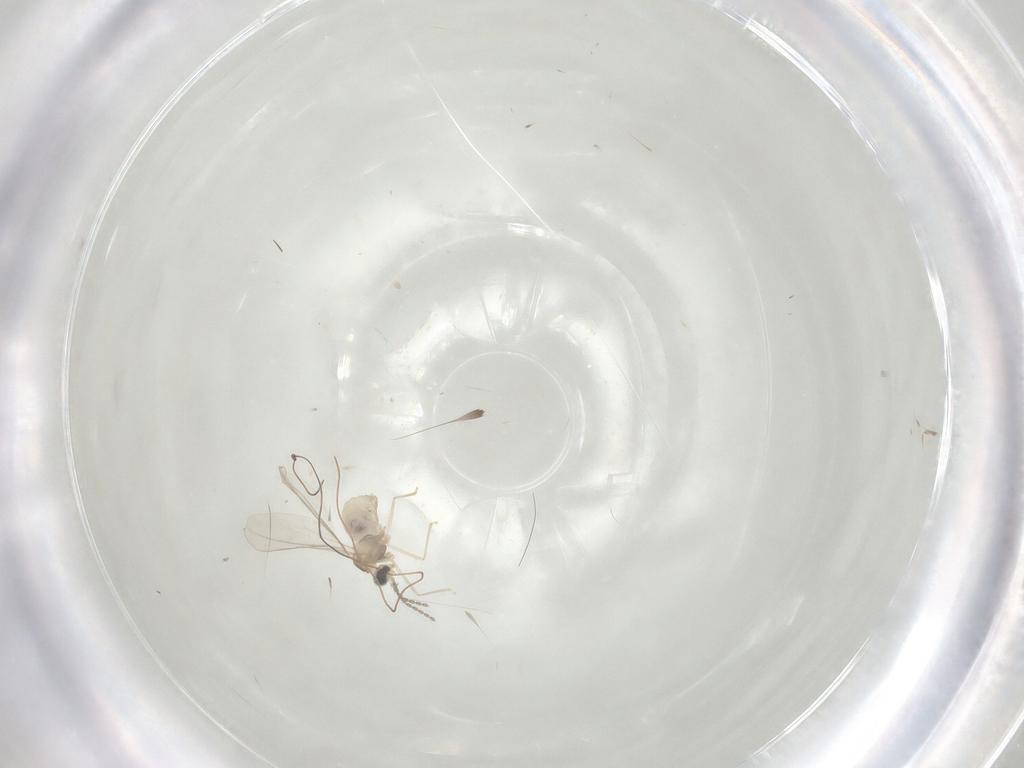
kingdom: Animalia
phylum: Arthropoda
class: Insecta
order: Diptera
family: Cecidomyiidae
